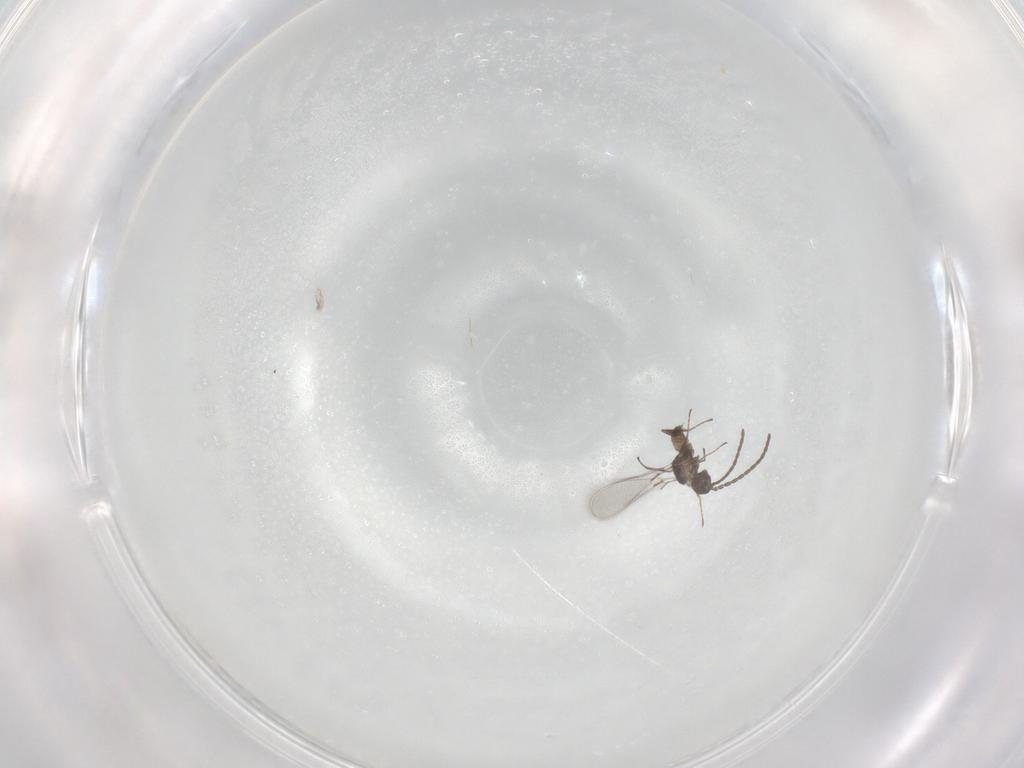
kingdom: Animalia
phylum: Arthropoda
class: Insecta
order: Hymenoptera
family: Mymaridae
